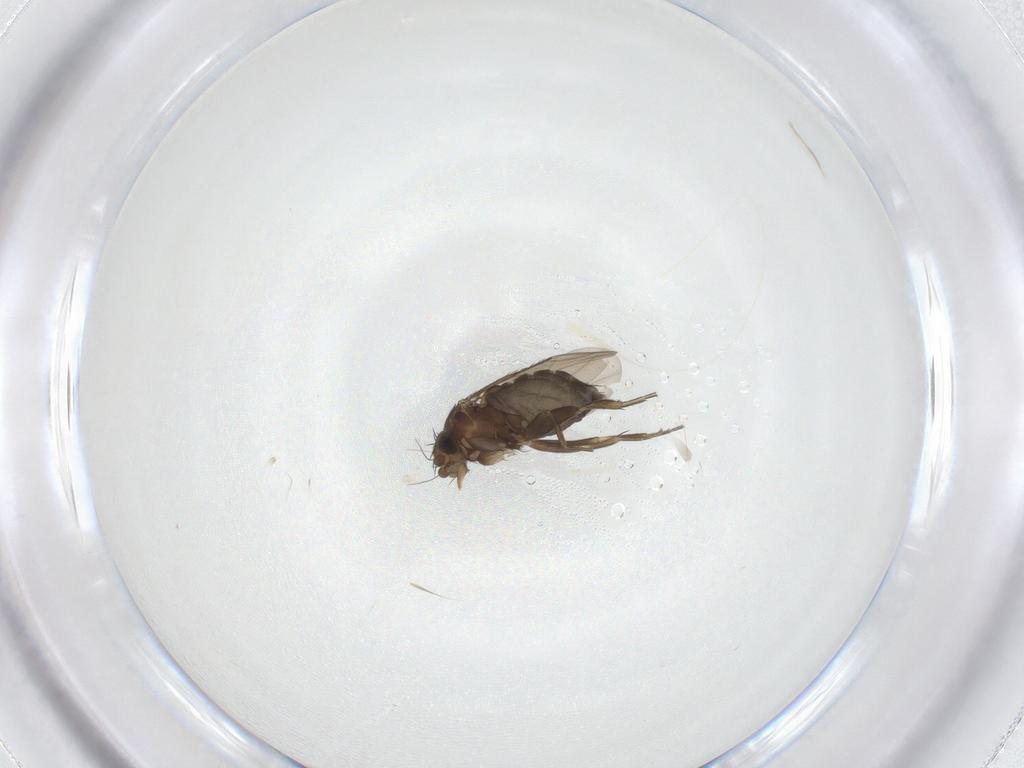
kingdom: Animalia
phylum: Arthropoda
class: Insecta
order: Diptera
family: Phoridae
